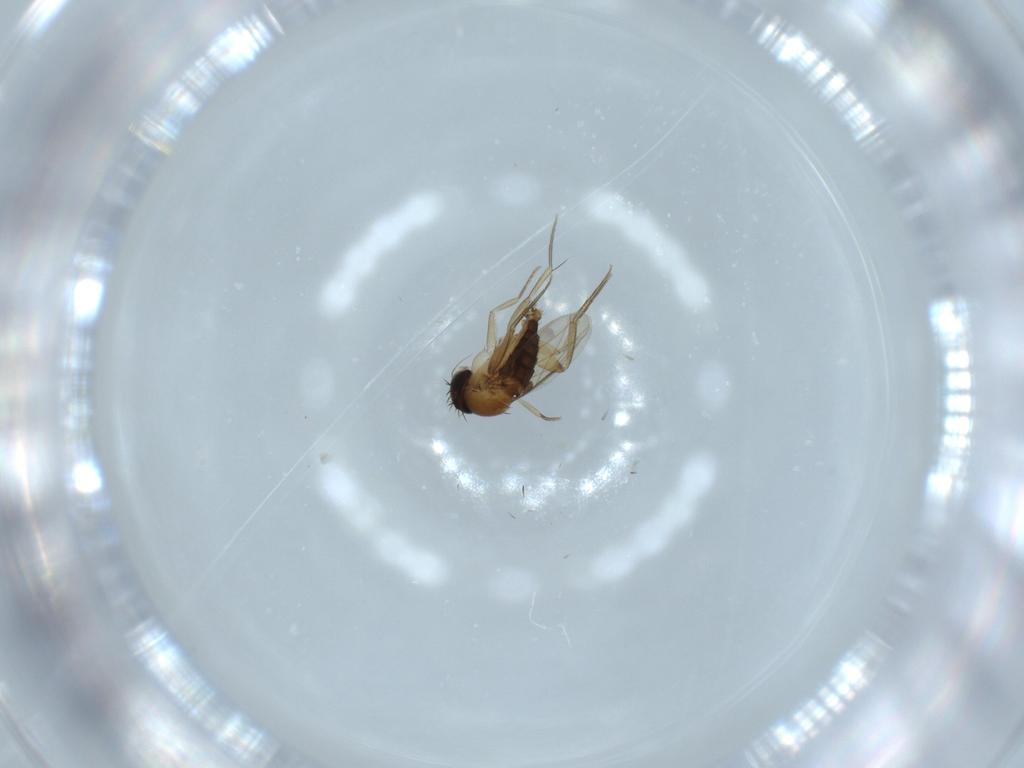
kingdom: Animalia
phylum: Arthropoda
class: Insecta
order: Diptera
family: Phoridae
